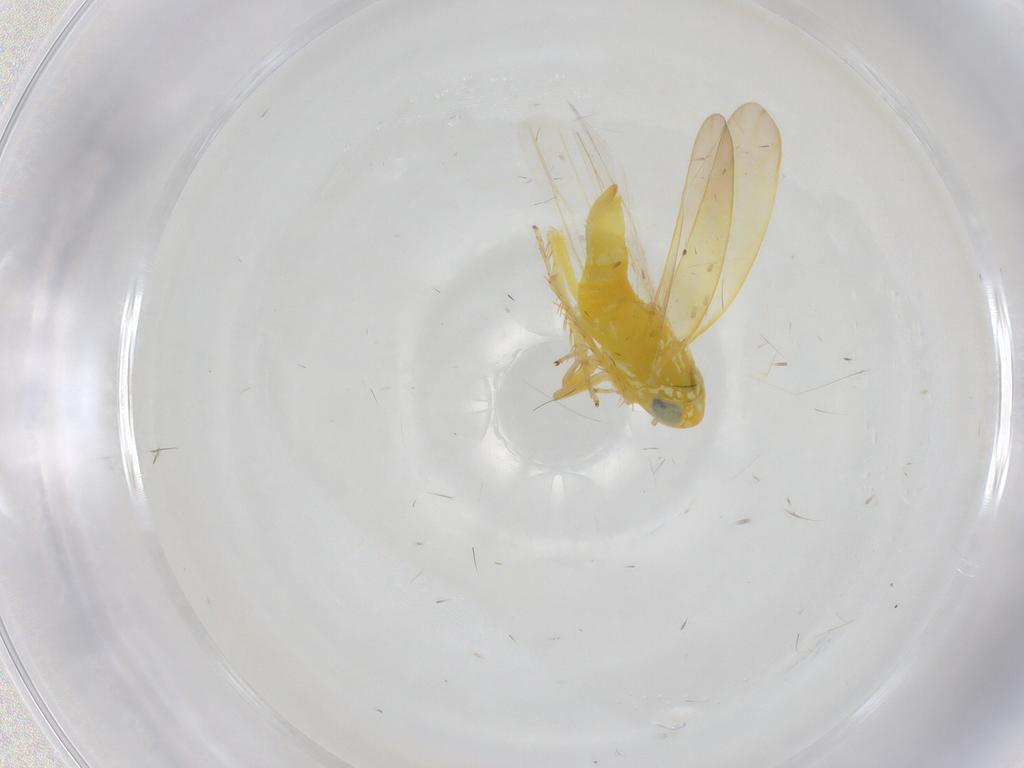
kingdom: Animalia
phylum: Arthropoda
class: Insecta
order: Hemiptera
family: Cicadellidae
